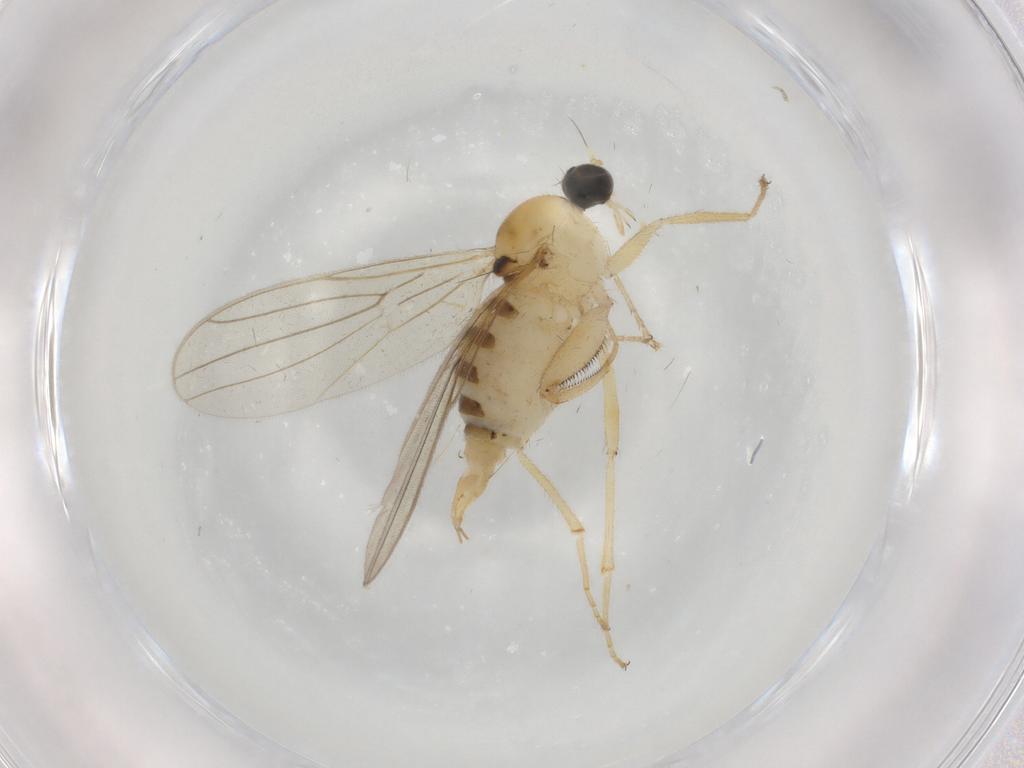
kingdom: Animalia
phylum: Arthropoda
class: Insecta
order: Diptera
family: Hybotidae
